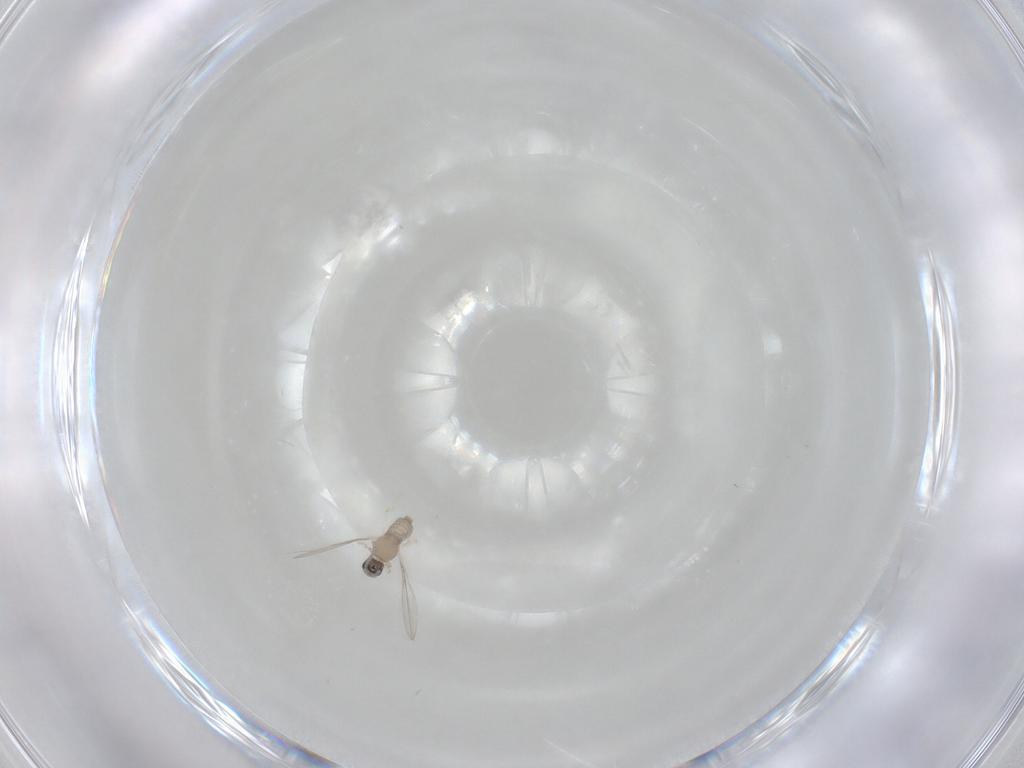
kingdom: Animalia
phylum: Arthropoda
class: Insecta
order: Diptera
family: Cecidomyiidae
